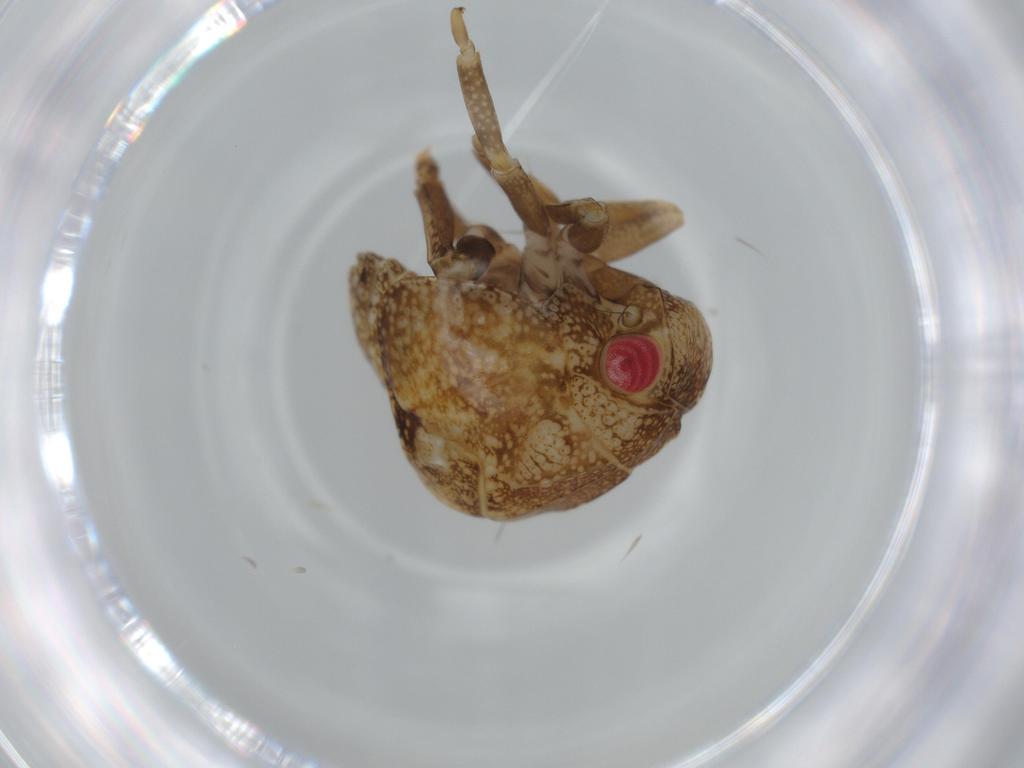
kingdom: Animalia
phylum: Arthropoda
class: Insecta
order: Hemiptera
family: Acanaloniidae
